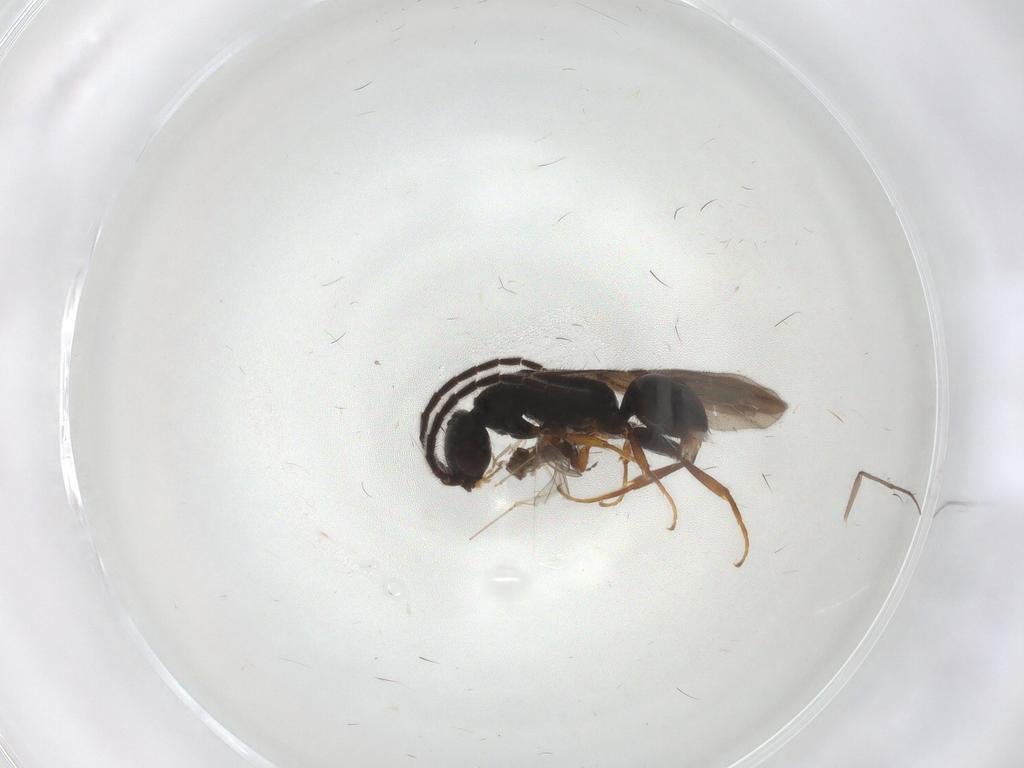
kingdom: Animalia
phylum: Arthropoda
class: Insecta
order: Diptera
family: Cecidomyiidae
